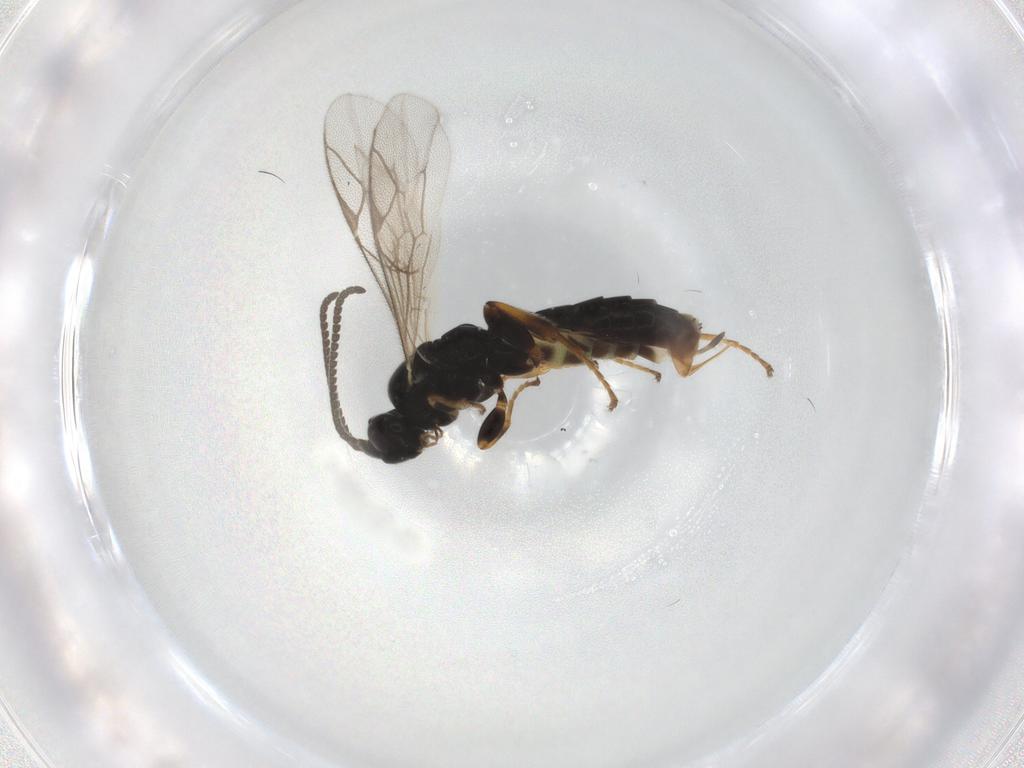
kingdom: Animalia
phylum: Arthropoda
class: Insecta
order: Hymenoptera
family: Ichneumonidae
